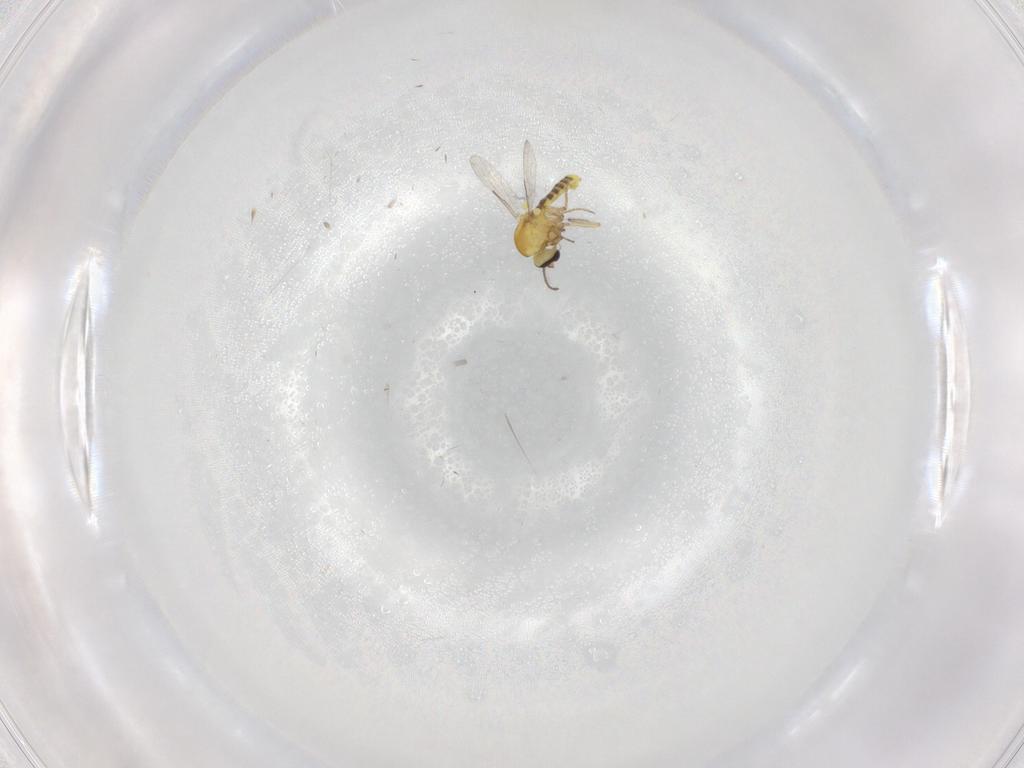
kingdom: Animalia
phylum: Arthropoda
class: Insecta
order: Diptera
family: Ceratopogonidae
